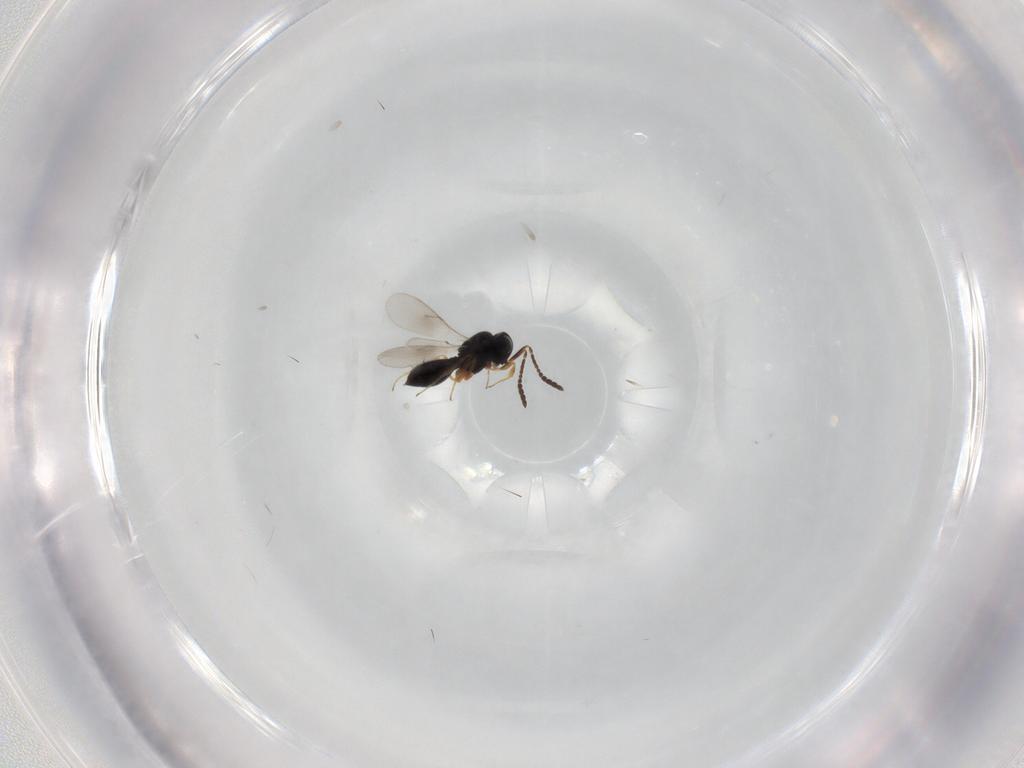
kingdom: Animalia
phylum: Arthropoda
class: Insecta
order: Hymenoptera
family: Scelionidae
